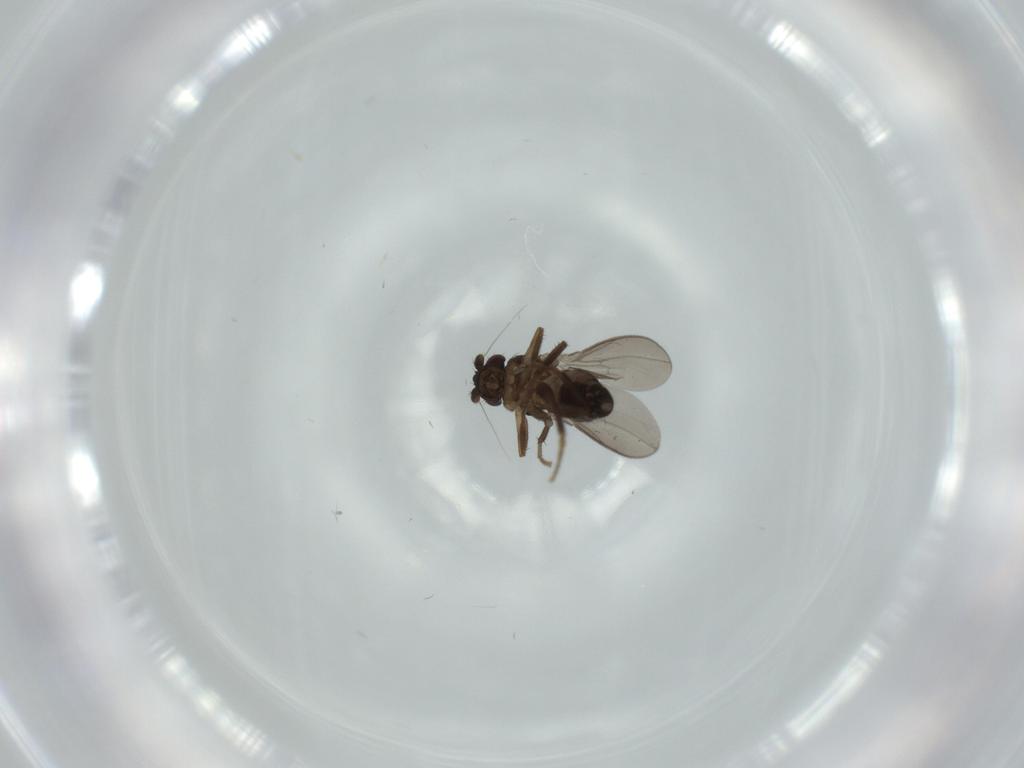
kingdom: Animalia
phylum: Arthropoda
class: Insecta
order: Diptera
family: Sphaeroceridae
